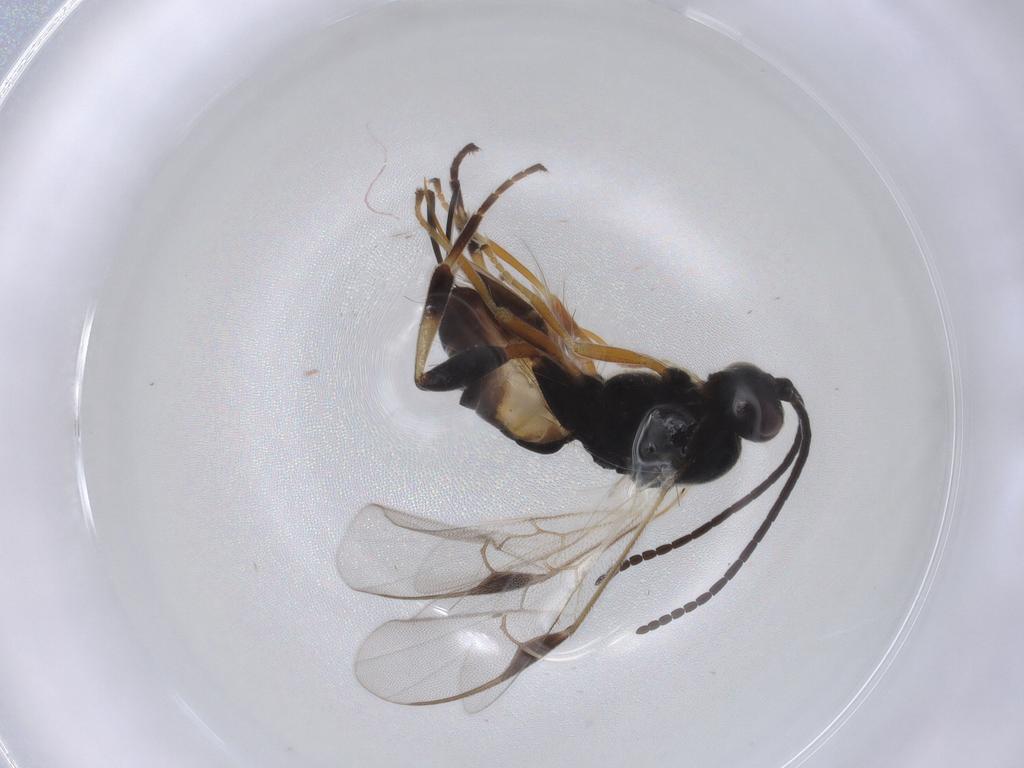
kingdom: Animalia
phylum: Arthropoda
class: Insecta
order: Hymenoptera
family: Braconidae
